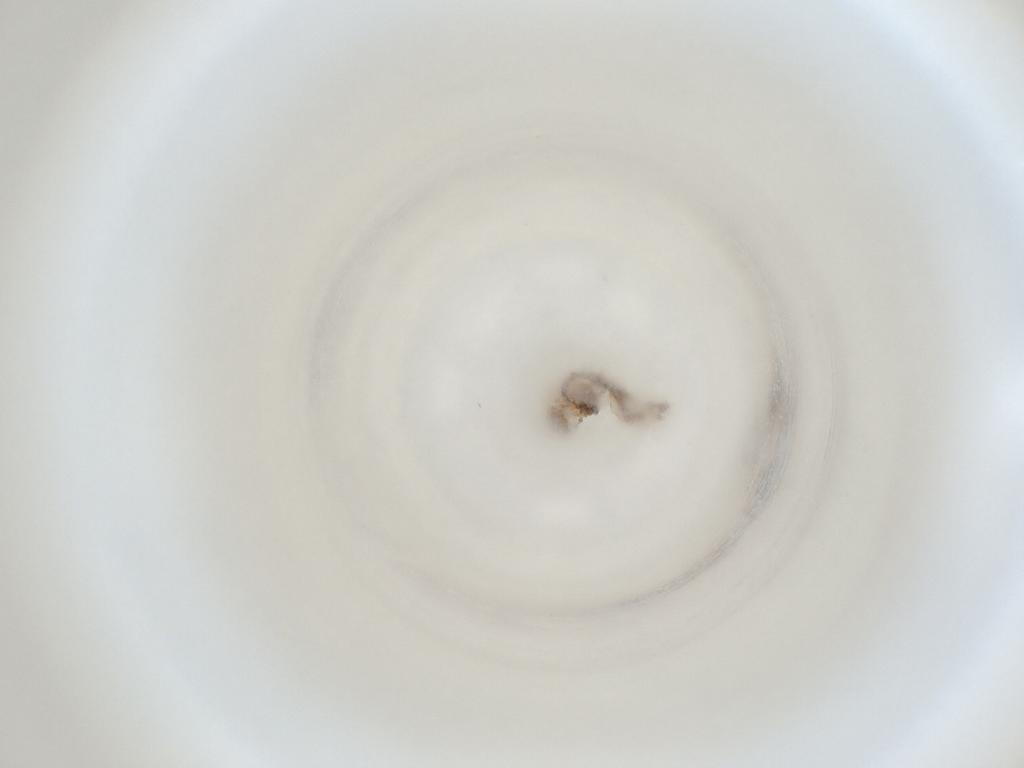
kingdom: Animalia
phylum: Arthropoda
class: Insecta
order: Diptera
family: Cecidomyiidae
